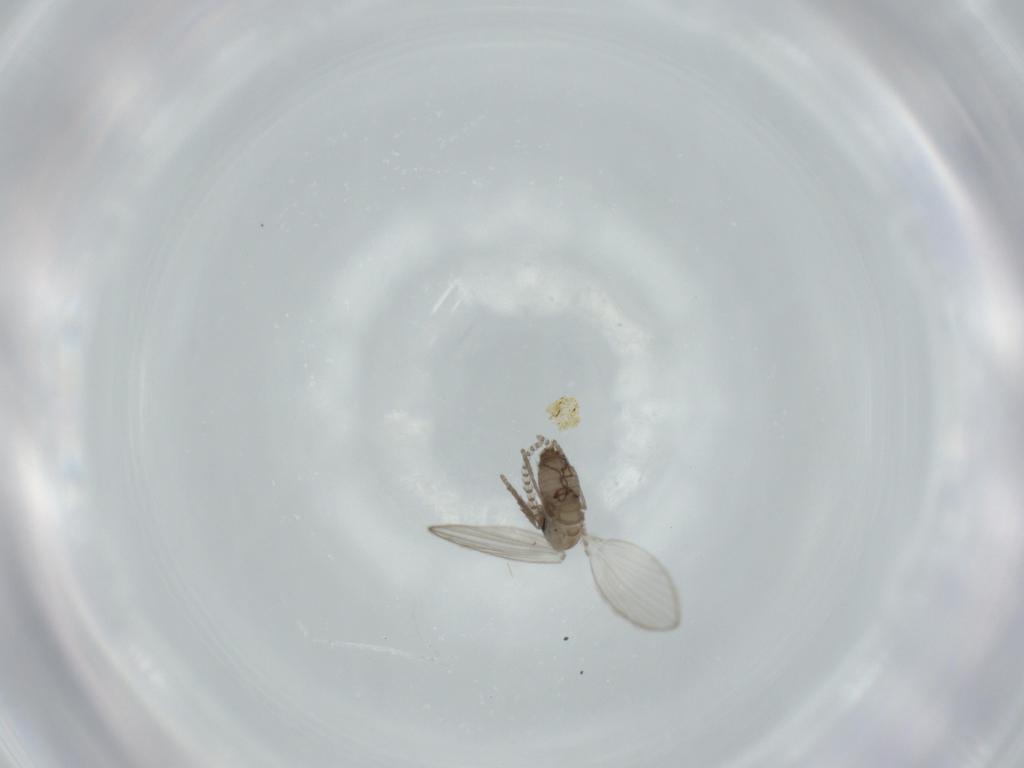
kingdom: Animalia
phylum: Arthropoda
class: Insecta
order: Diptera
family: Psychodidae
